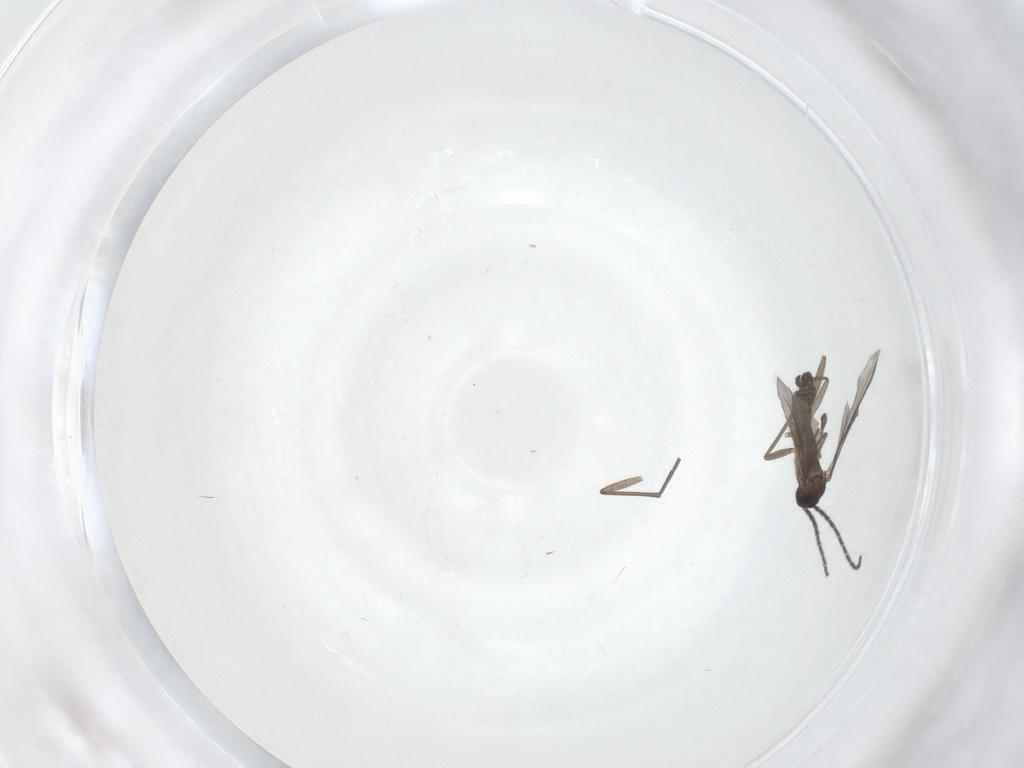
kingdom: Animalia
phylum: Arthropoda
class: Insecta
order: Diptera
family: Sciaridae
